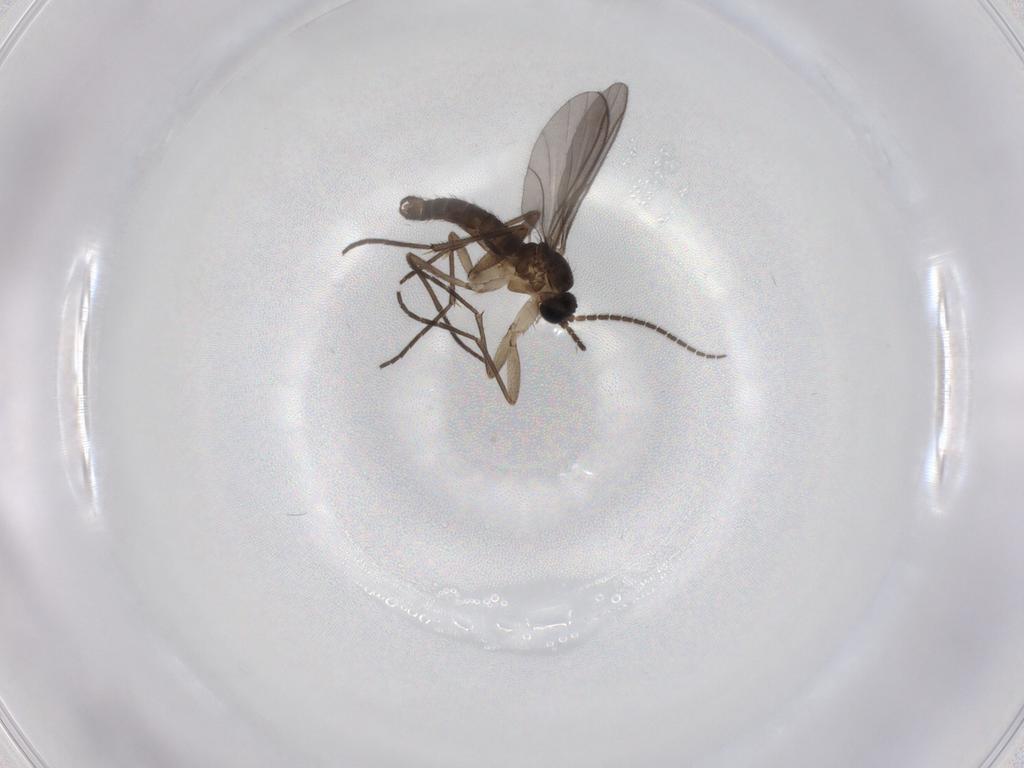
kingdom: Animalia
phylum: Arthropoda
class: Insecta
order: Diptera
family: Sciaridae
